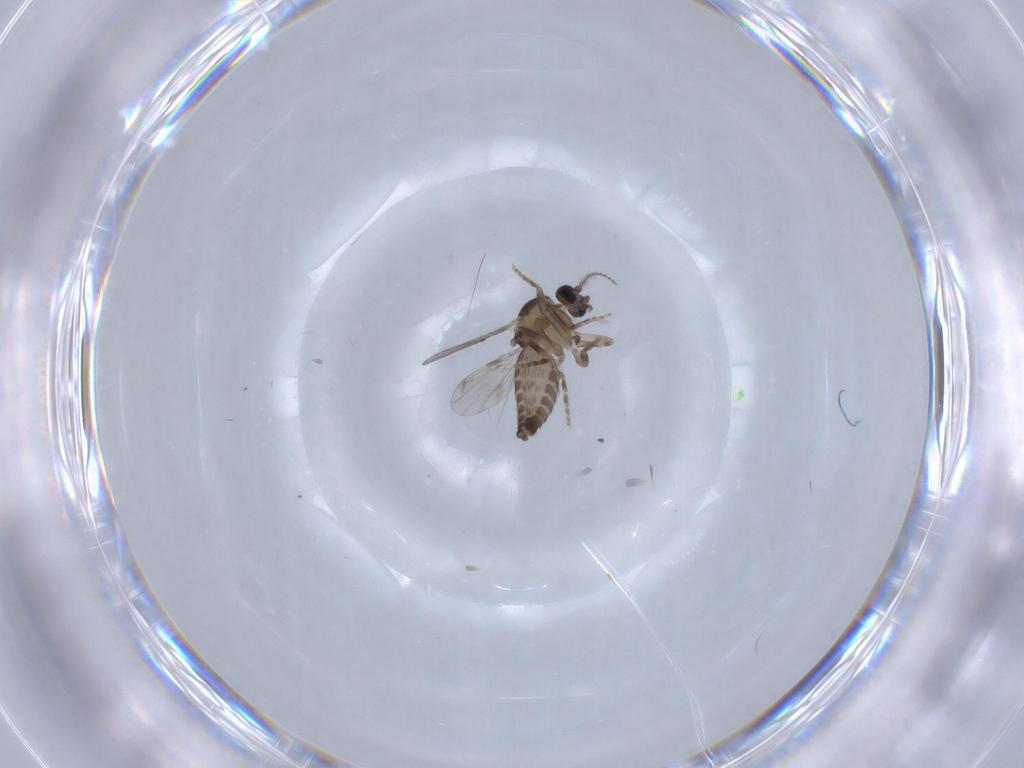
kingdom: Animalia
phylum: Arthropoda
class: Insecta
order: Diptera
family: Ceratopogonidae
